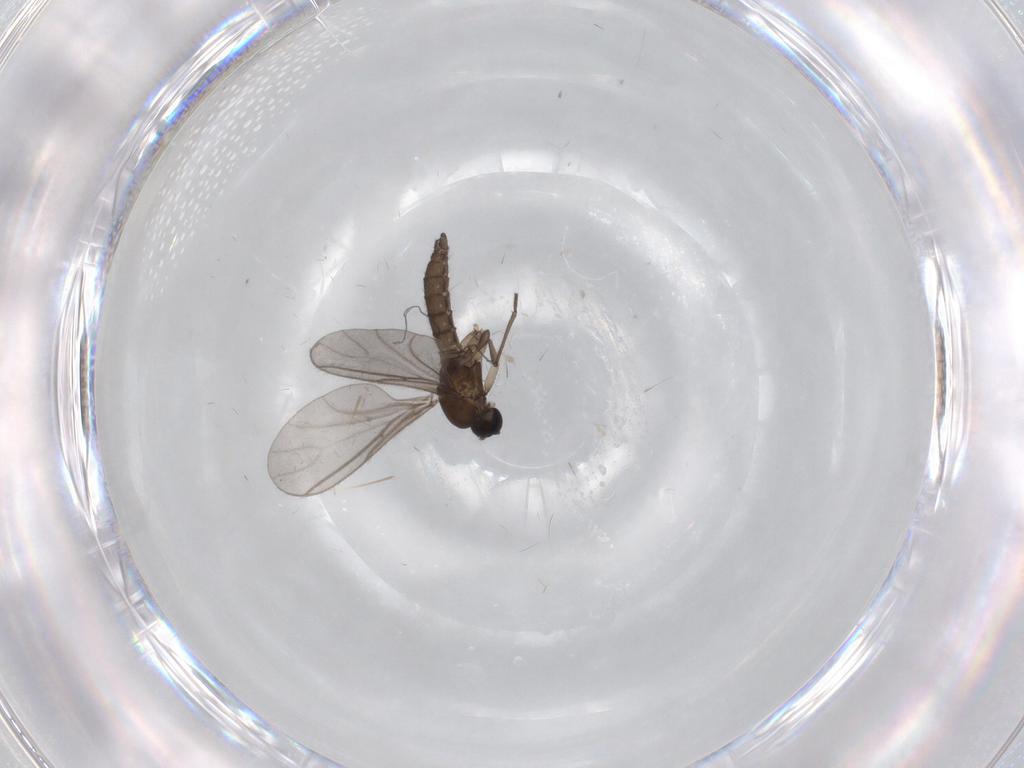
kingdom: Animalia
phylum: Arthropoda
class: Insecta
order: Diptera
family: Sciaridae
